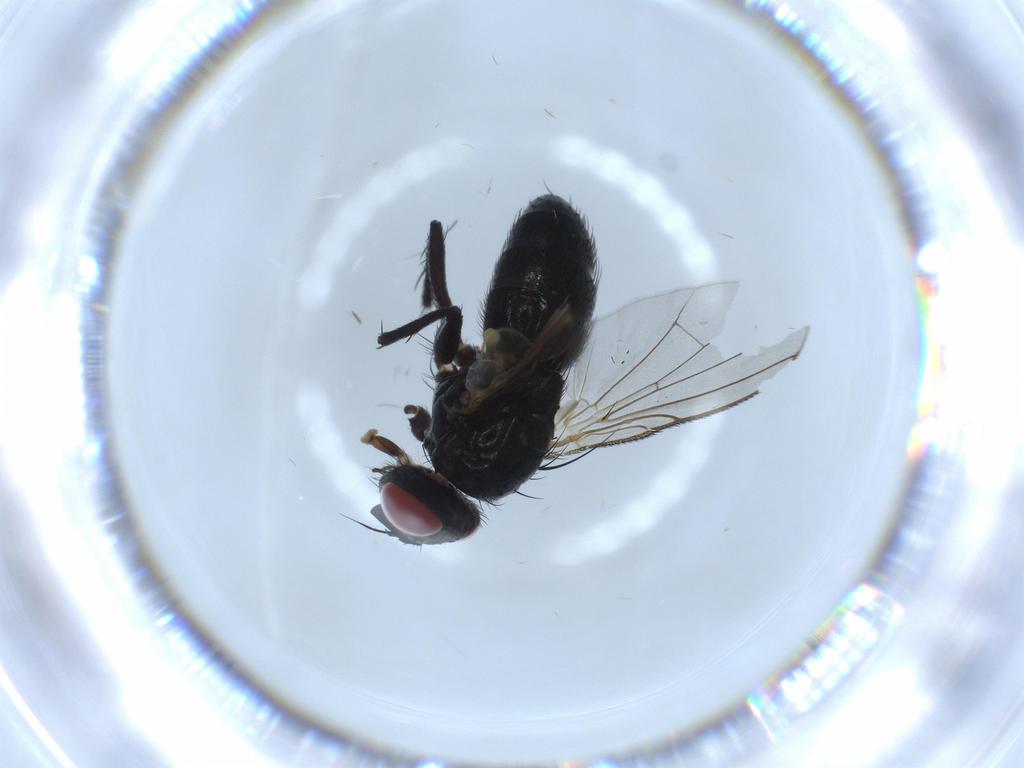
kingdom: Animalia
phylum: Arthropoda
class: Insecta
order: Diptera
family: Tachinidae
